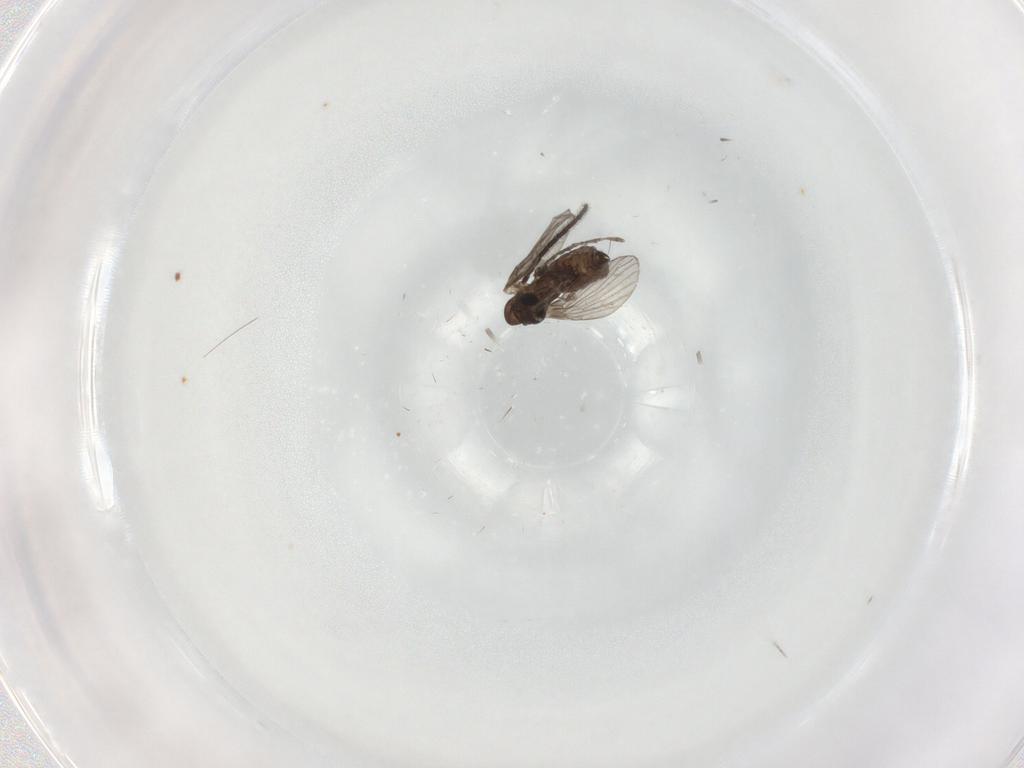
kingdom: Animalia
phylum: Arthropoda
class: Insecta
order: Diptera
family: Psychodidae
